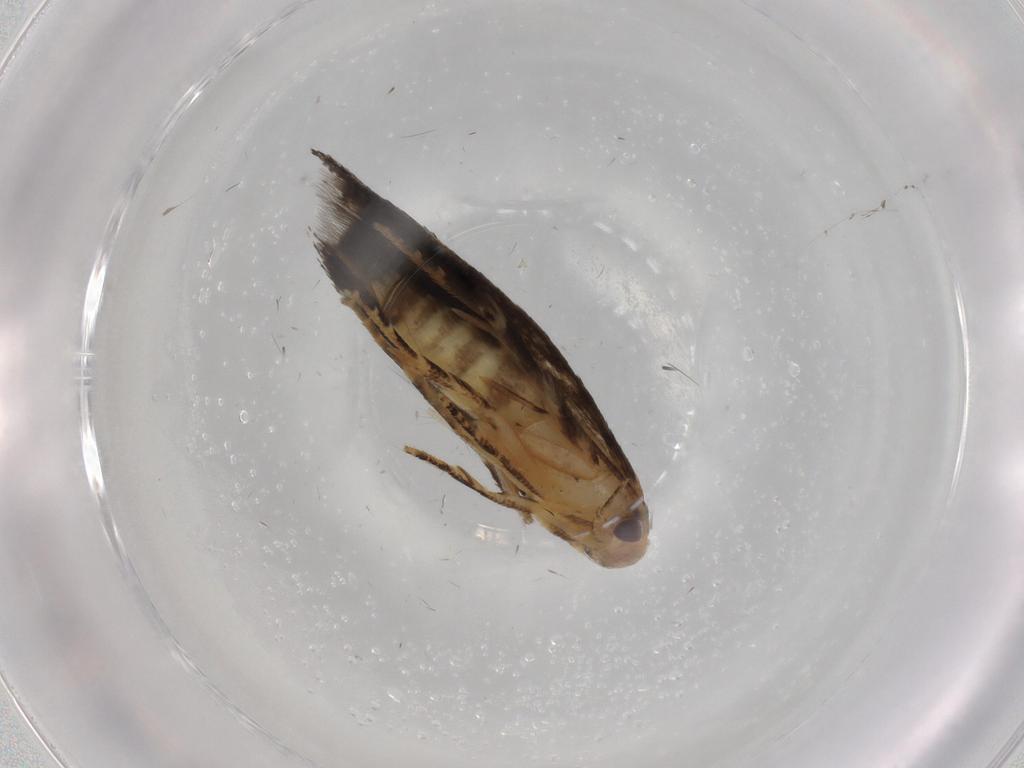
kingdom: Animalia
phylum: Arthropoda
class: Insecta
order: Lepidoptera
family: Momphidae
